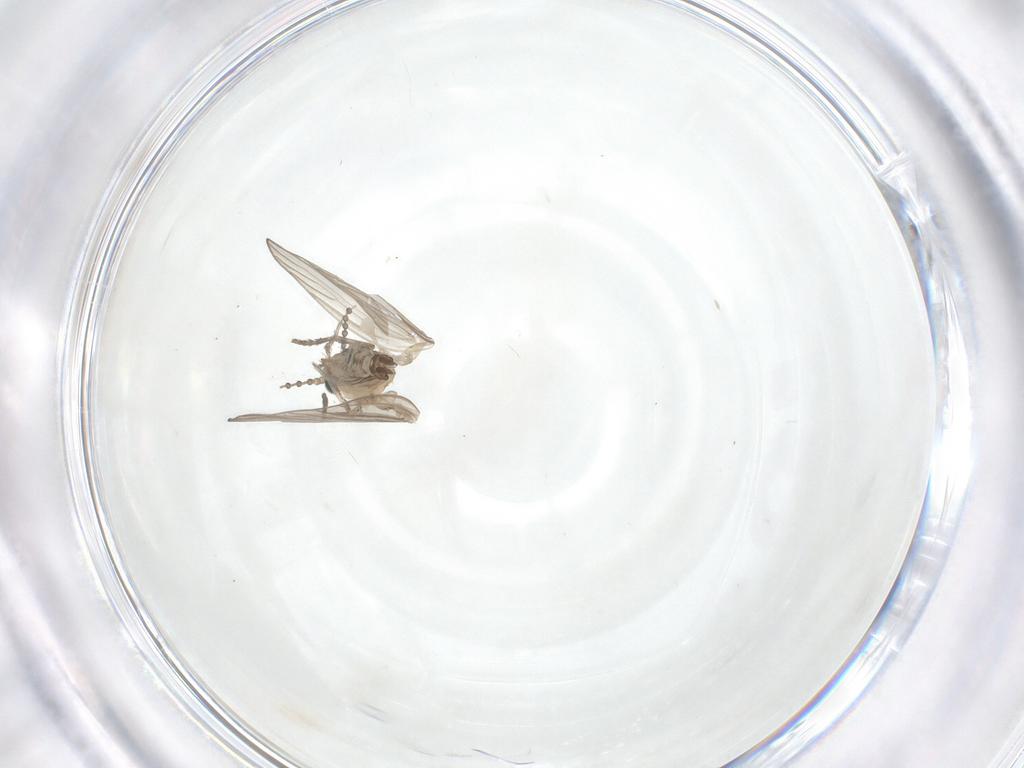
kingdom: Animalia
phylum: Arthropoda
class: Insecta
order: Diptera
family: Psychodidae
